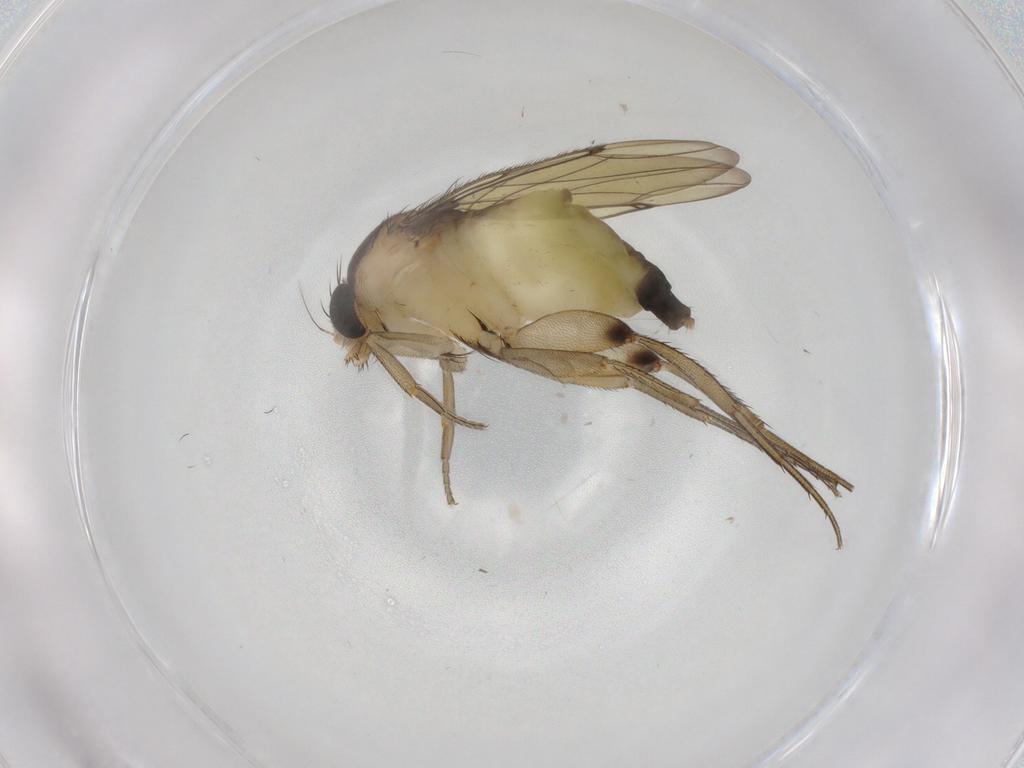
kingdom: Animalia
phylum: Arthropoda
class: Insecta
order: Diptera
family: Phoridae
